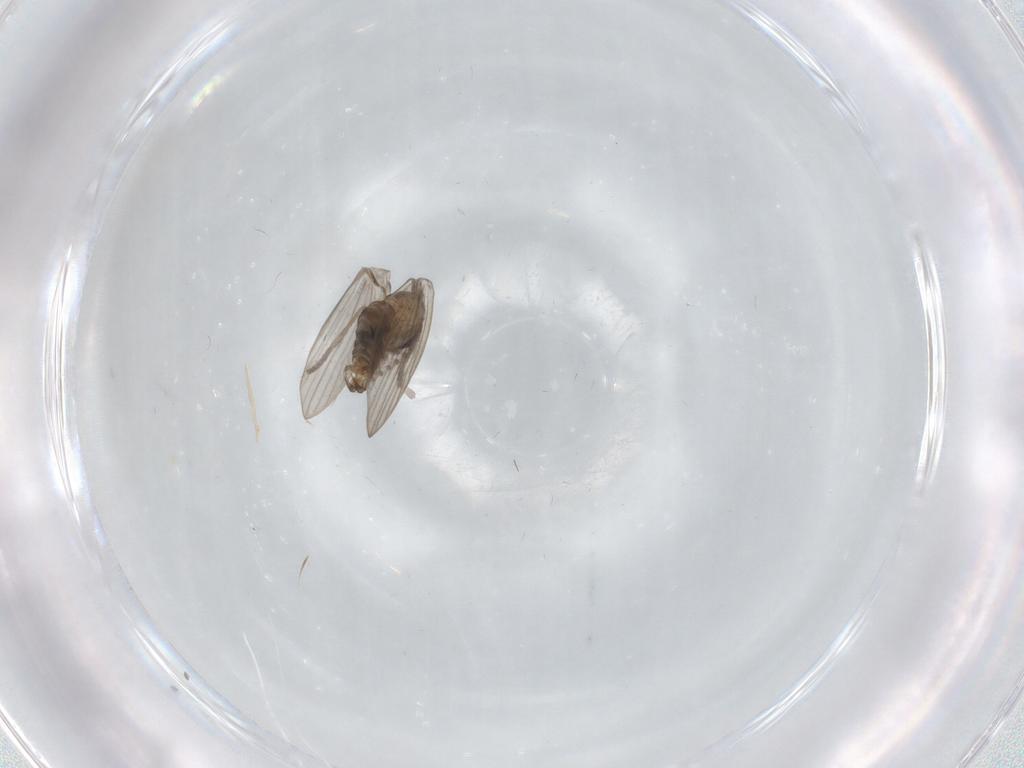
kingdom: Animalia
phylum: Arthropoda
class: Insecta
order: Diptera
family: Psychodidae
